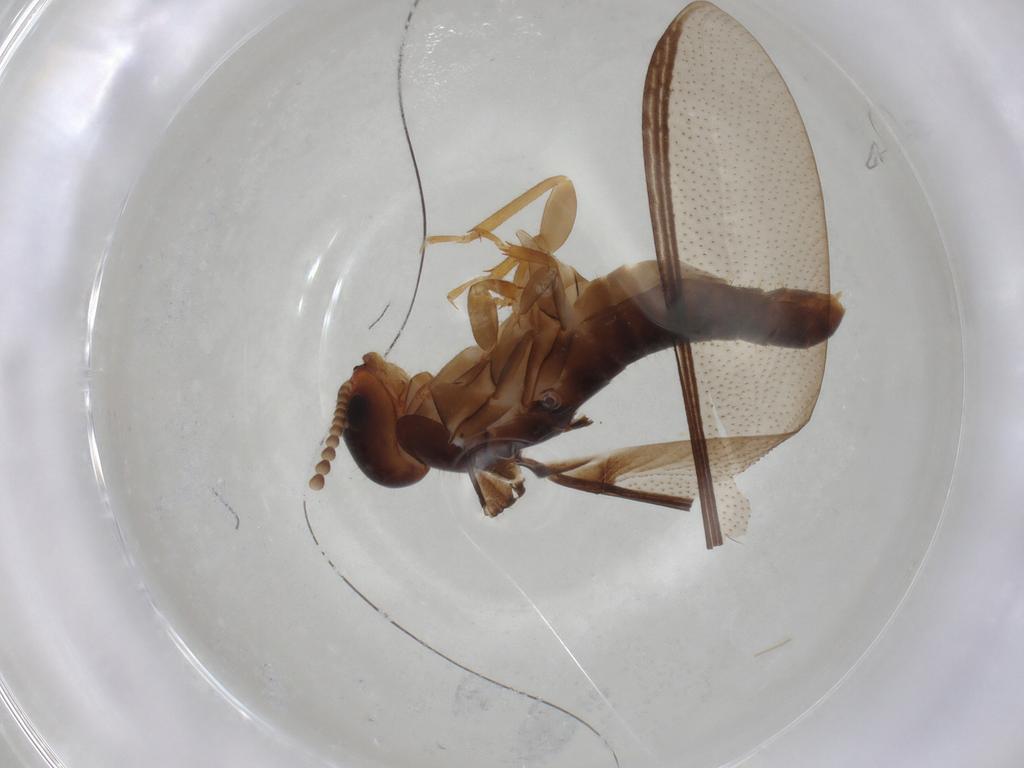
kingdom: Animalia
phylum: Arthropoda
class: Insecta
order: Blattodea
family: Kalotermitidae
